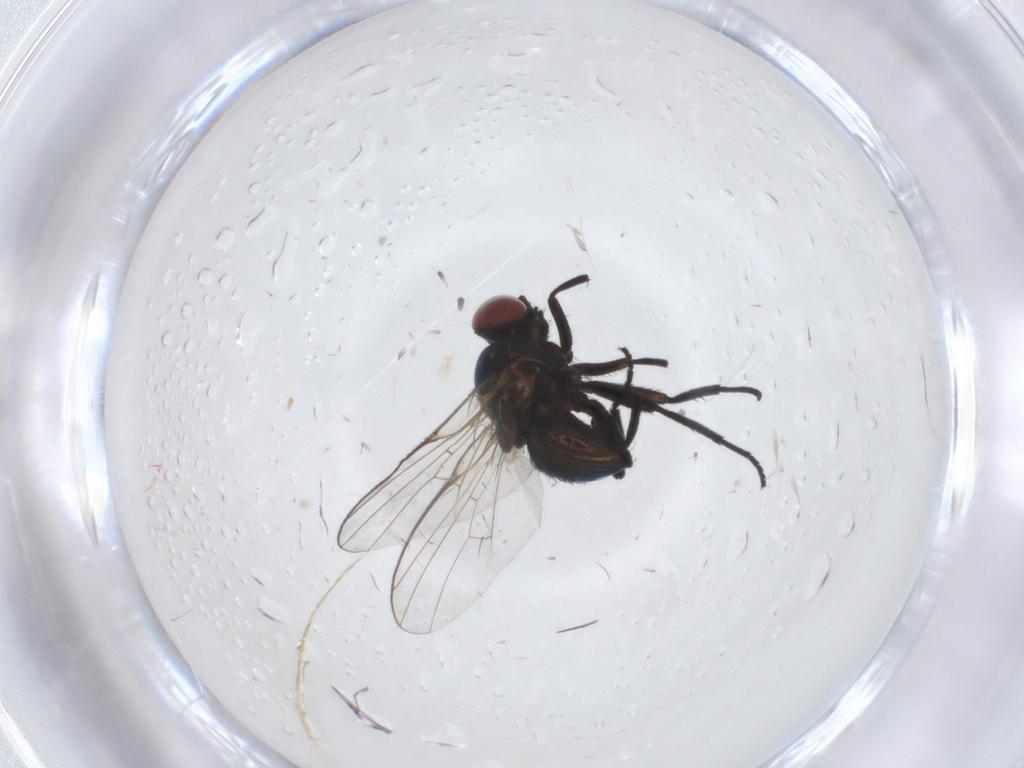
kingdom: Animalia
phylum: Arthropoda
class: Insecta
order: Diptera
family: Agromyzidae
